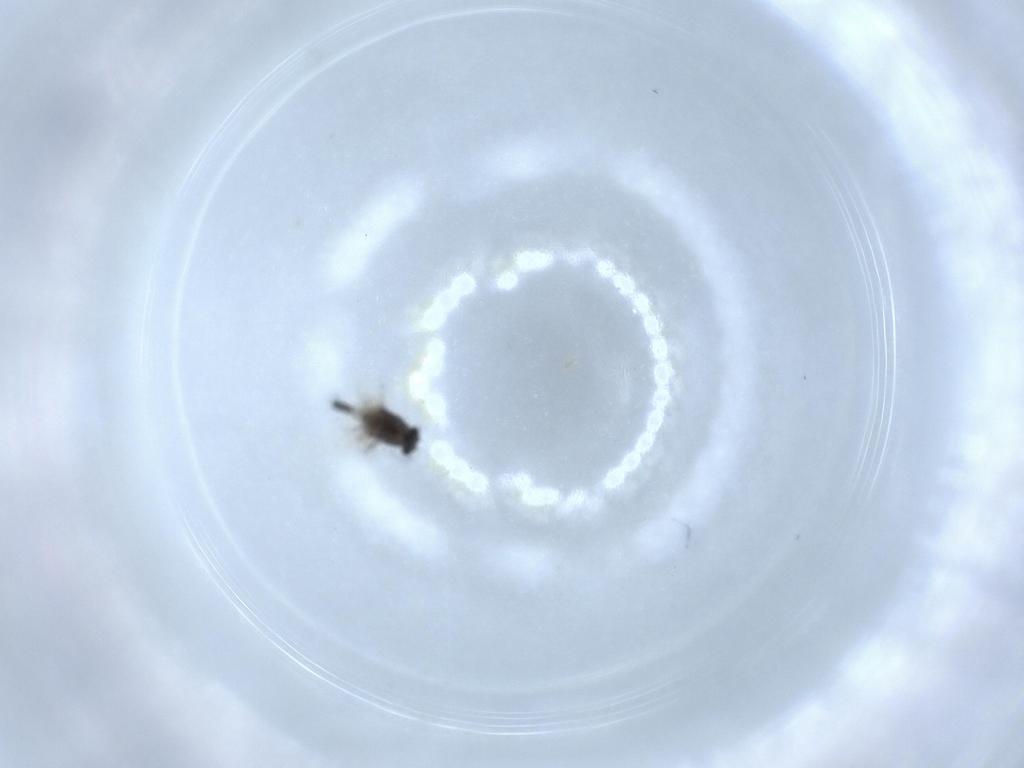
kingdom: Animalia
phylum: Arthropoda
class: Insecta
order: Diptera
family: Chironomidae
